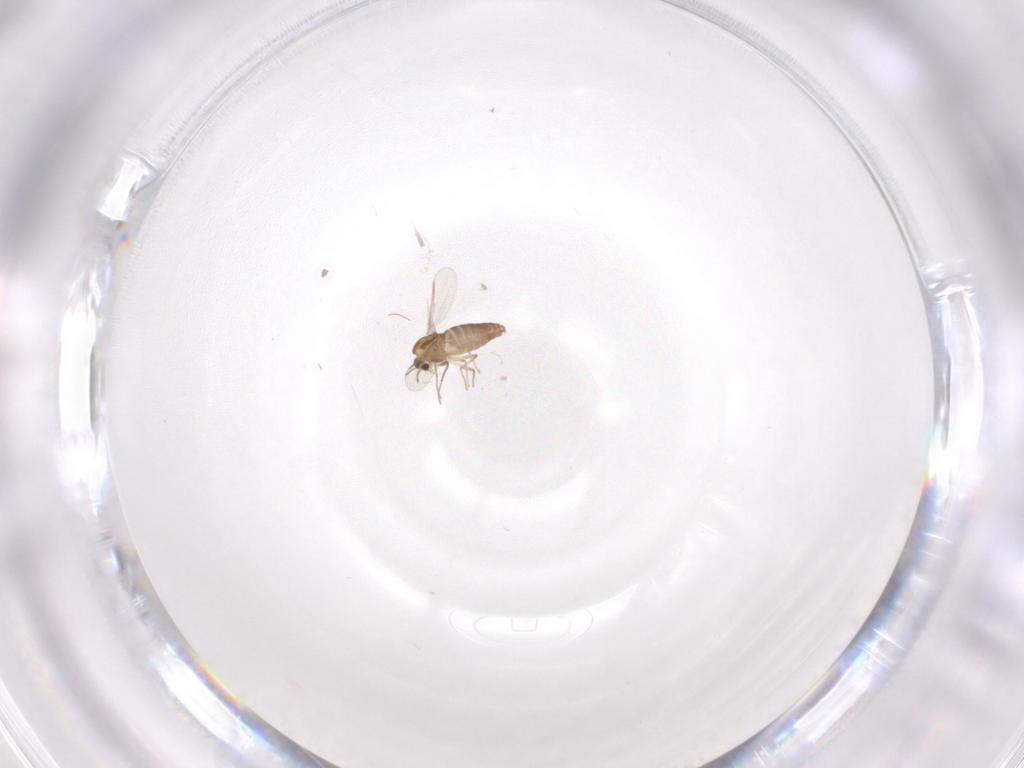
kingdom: Animalia
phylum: Arthropoda
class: Insecta
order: Diptera
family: Chironomidae
